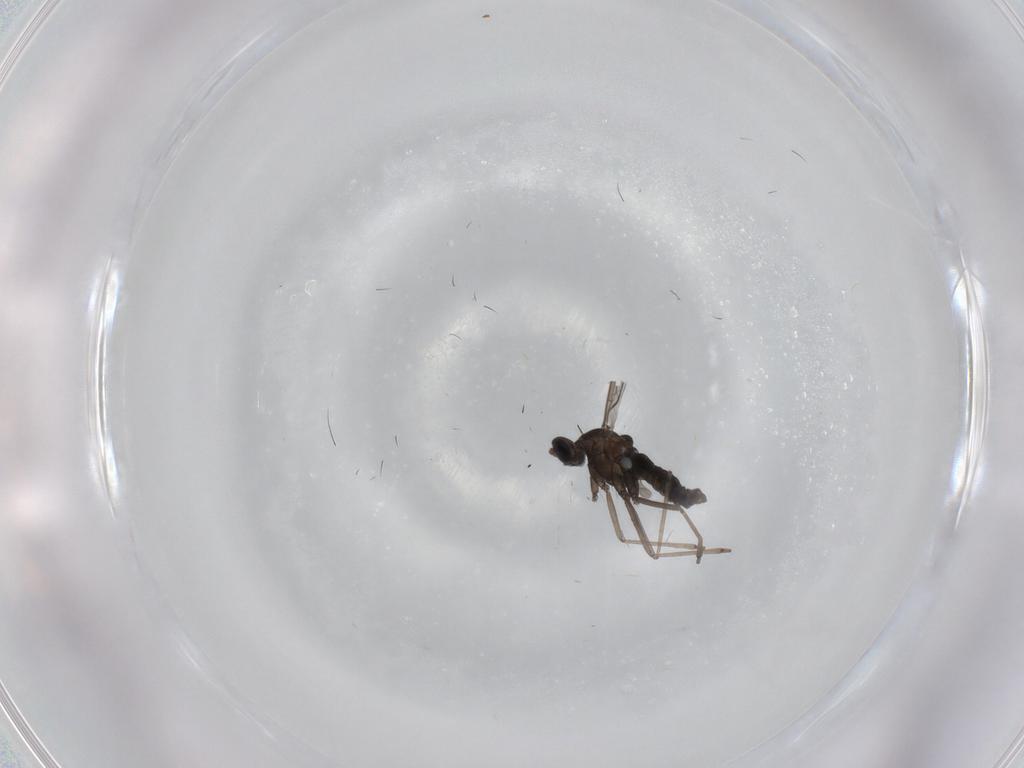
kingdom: Animalia
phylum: Arthropoda
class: Insecta
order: Diptera
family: Cecidomyiidae
